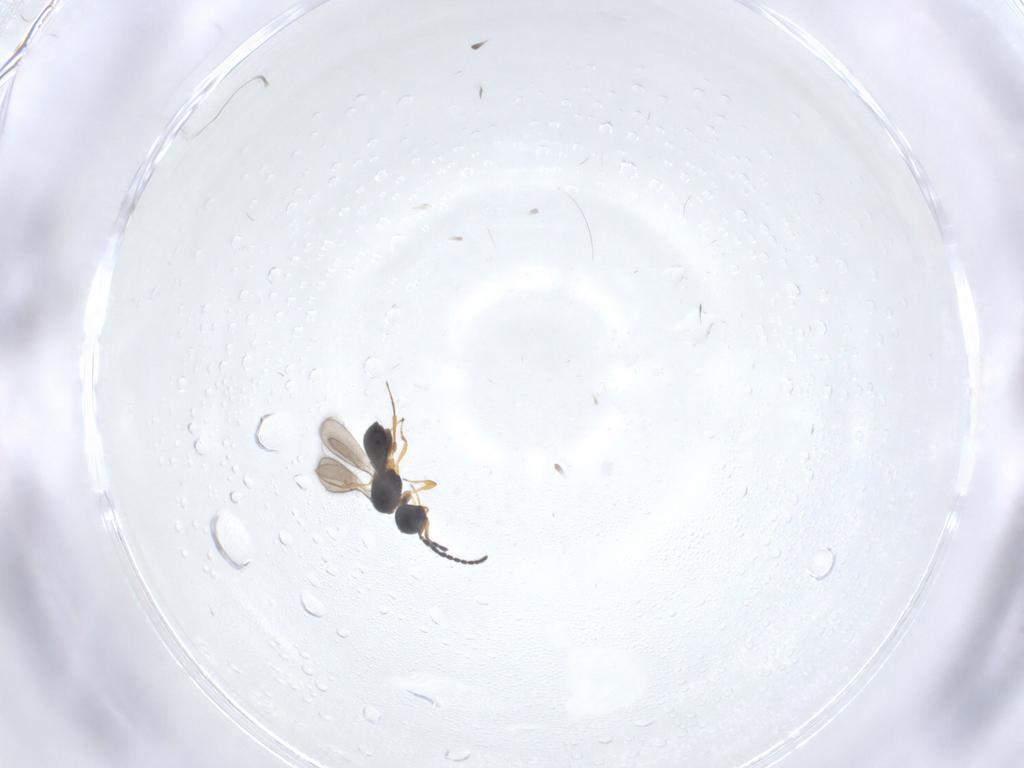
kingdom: Animalia
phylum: Arthropoda
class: Insecta
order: Hymenoptera
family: Scelionidae
